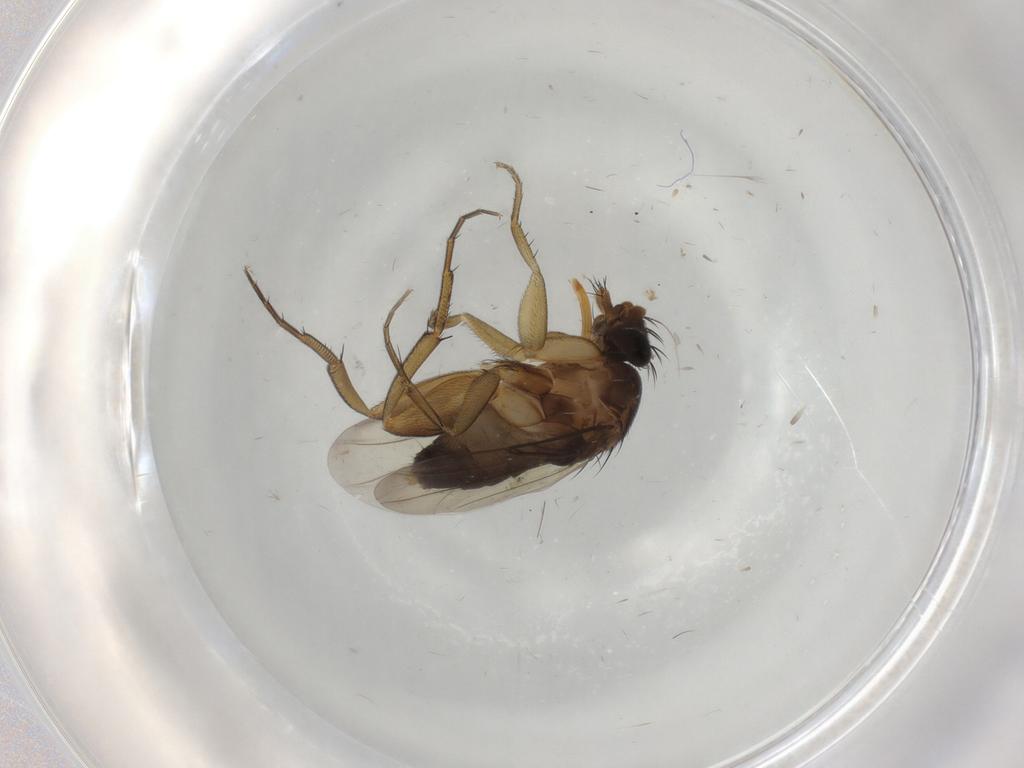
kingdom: Animalia
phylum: Arthropoda
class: Insecta
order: Diptera
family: Phoridae
